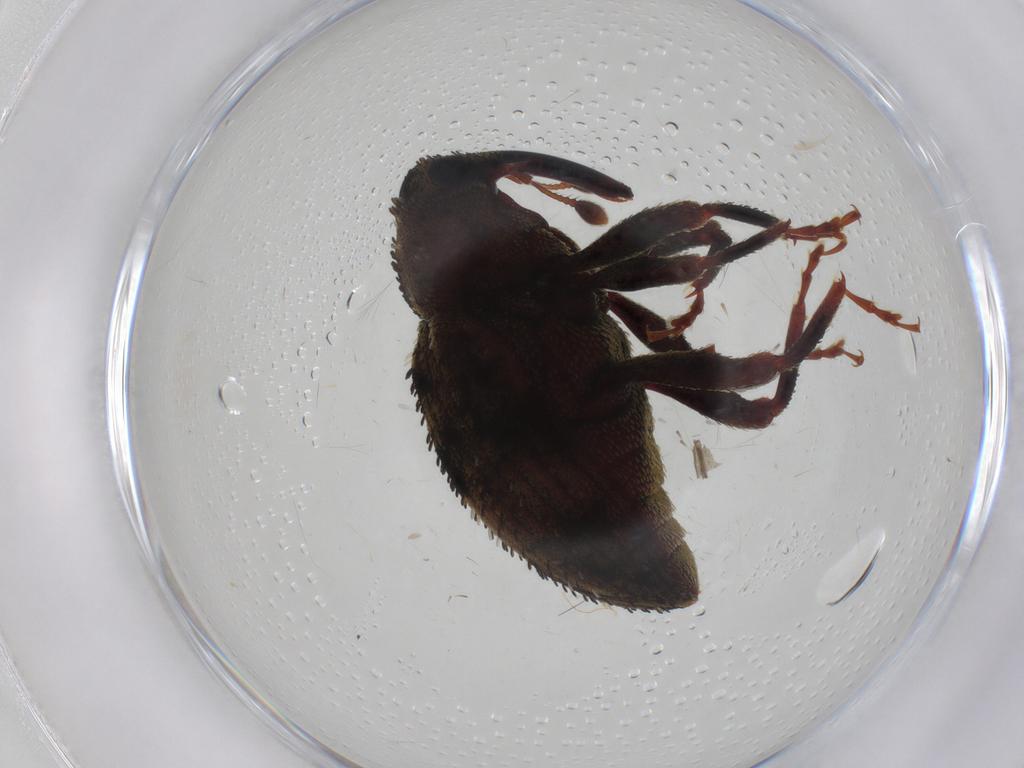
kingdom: Animalia
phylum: Arthropoda
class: Insecta
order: Coleoptera
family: Curculionidae
